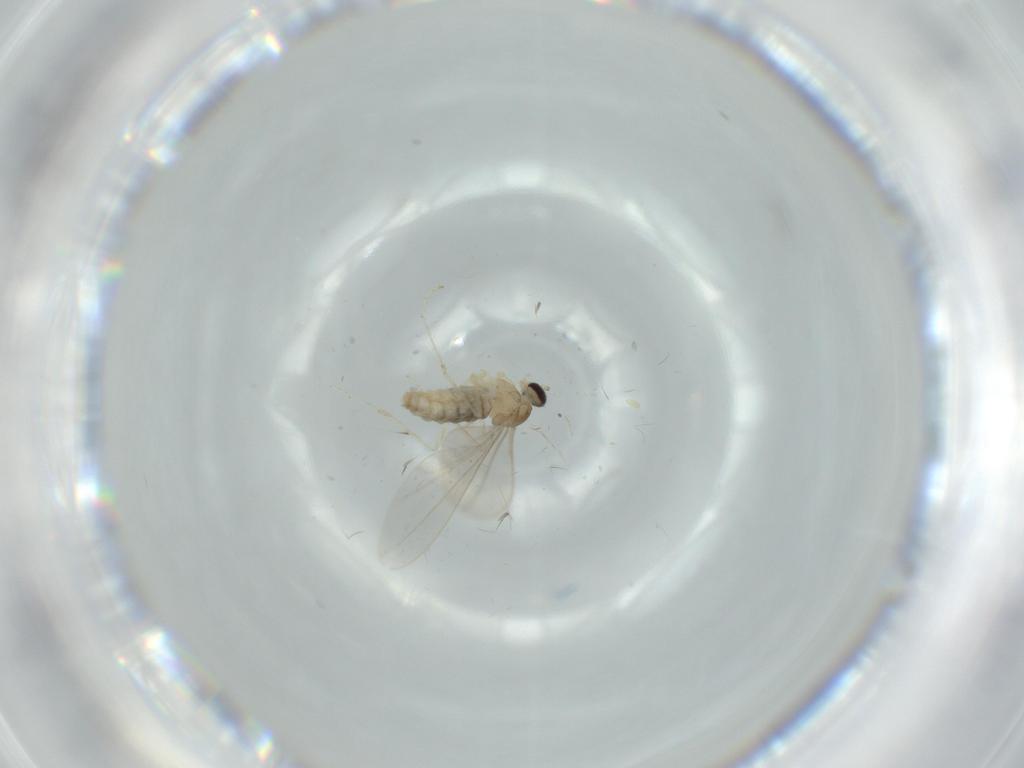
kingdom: Animalia
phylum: Arthropoda
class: Insecta
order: Diptera
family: Cecidomyiidae
